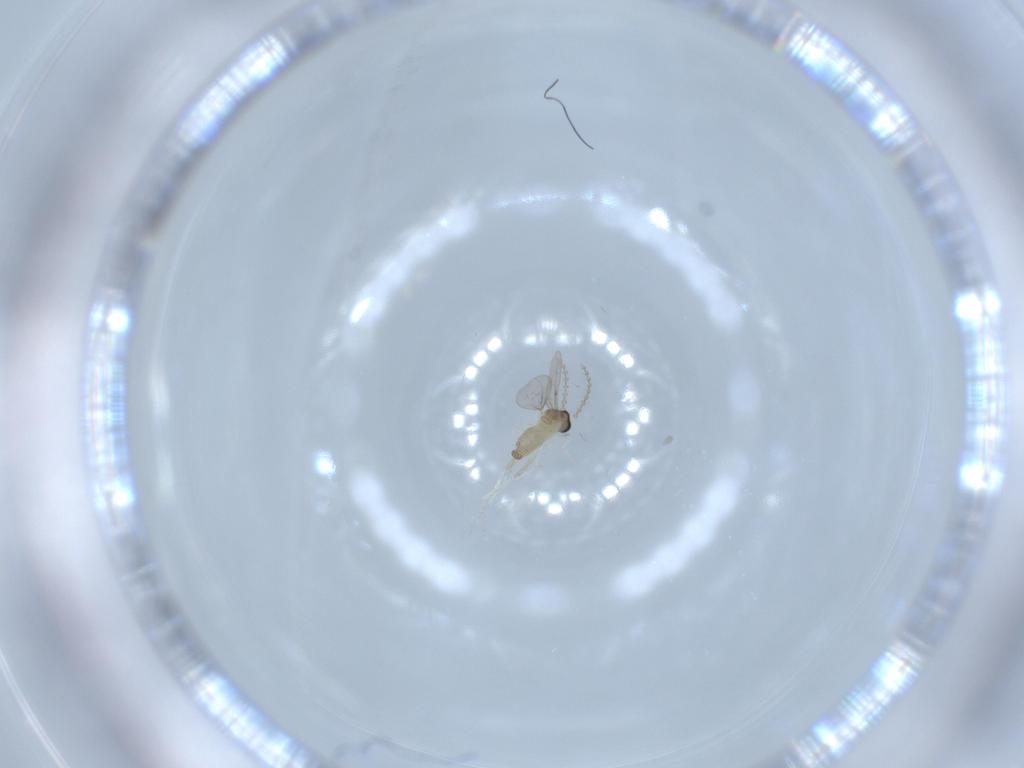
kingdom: Animalia
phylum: Arthropoda
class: Insecta
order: Diptera
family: Cecidomyiidae
